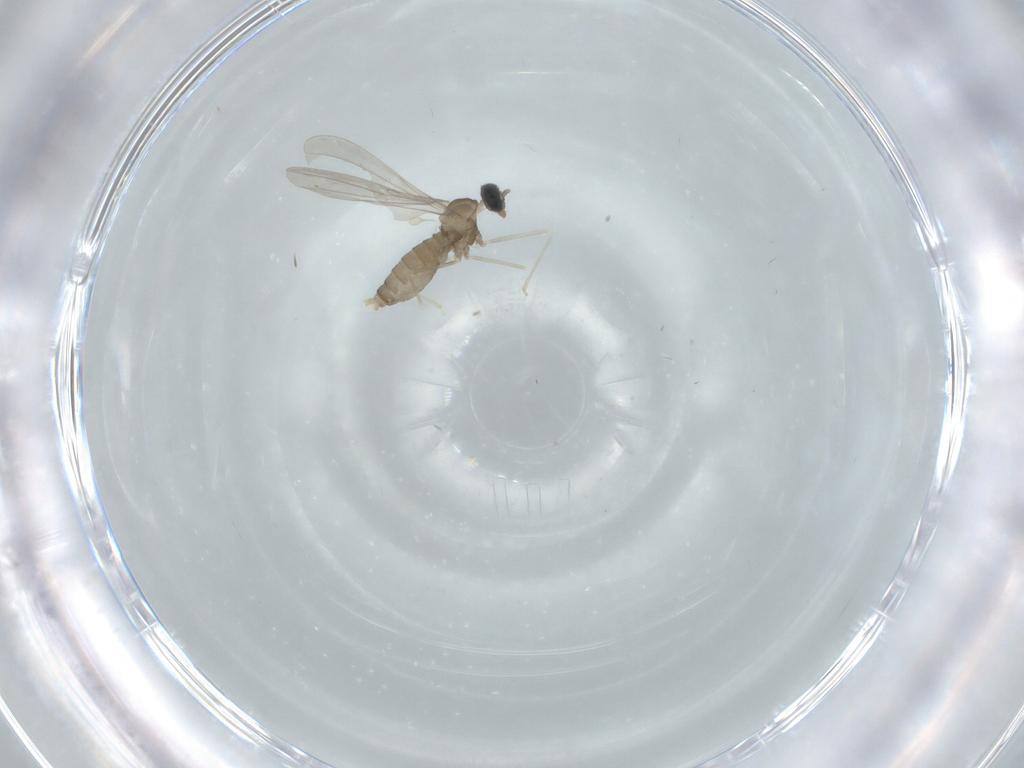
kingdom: Animalia
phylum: Arthropoda
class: Insecta
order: Diptera
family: Cecidomyiidae
